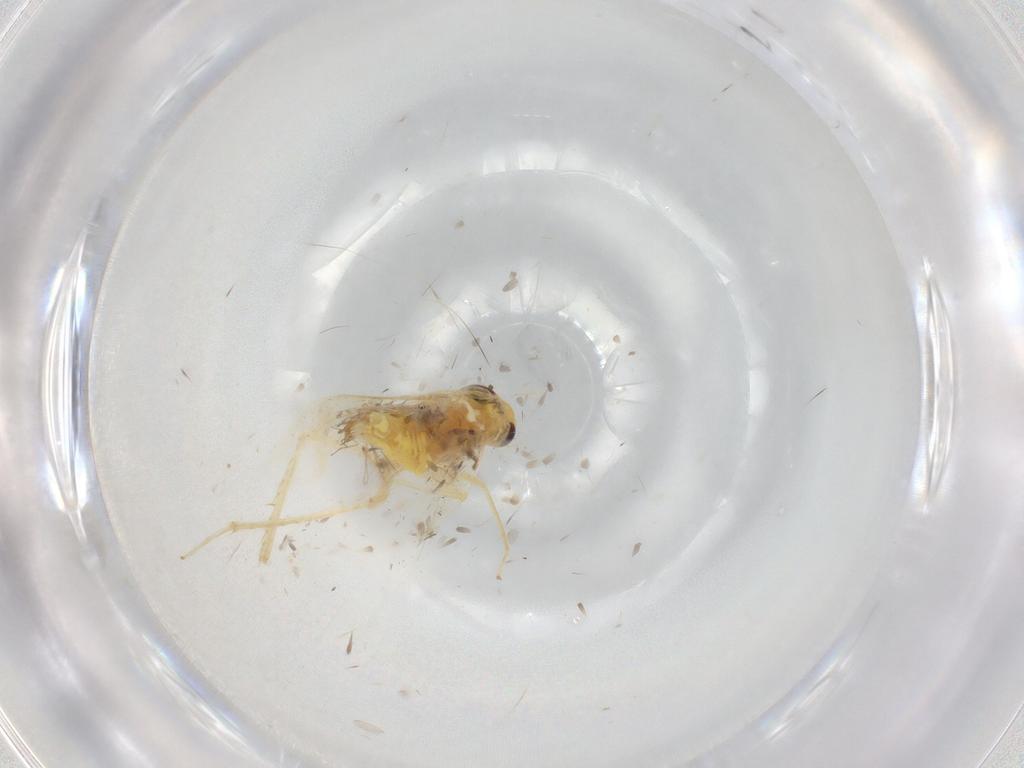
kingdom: Animalia
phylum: Arthropoda
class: Insecta
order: Hemiptera
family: Cicadellidae
